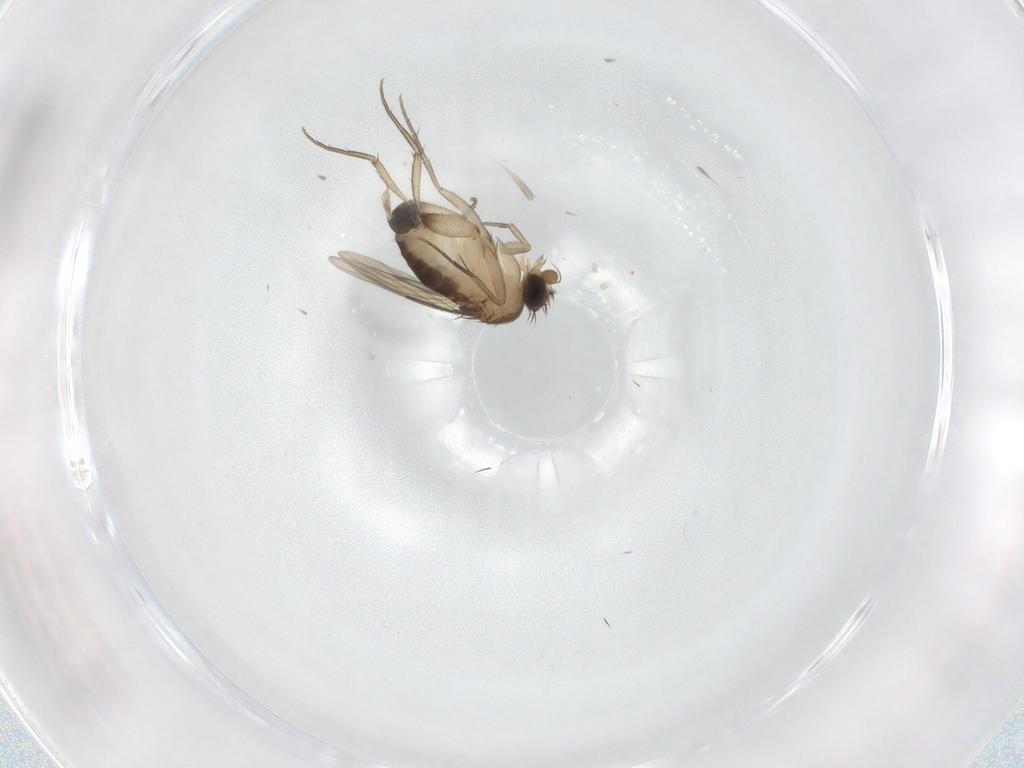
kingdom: Animalia
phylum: Arthropoda
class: Insecta
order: Diptera
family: Phoridae
